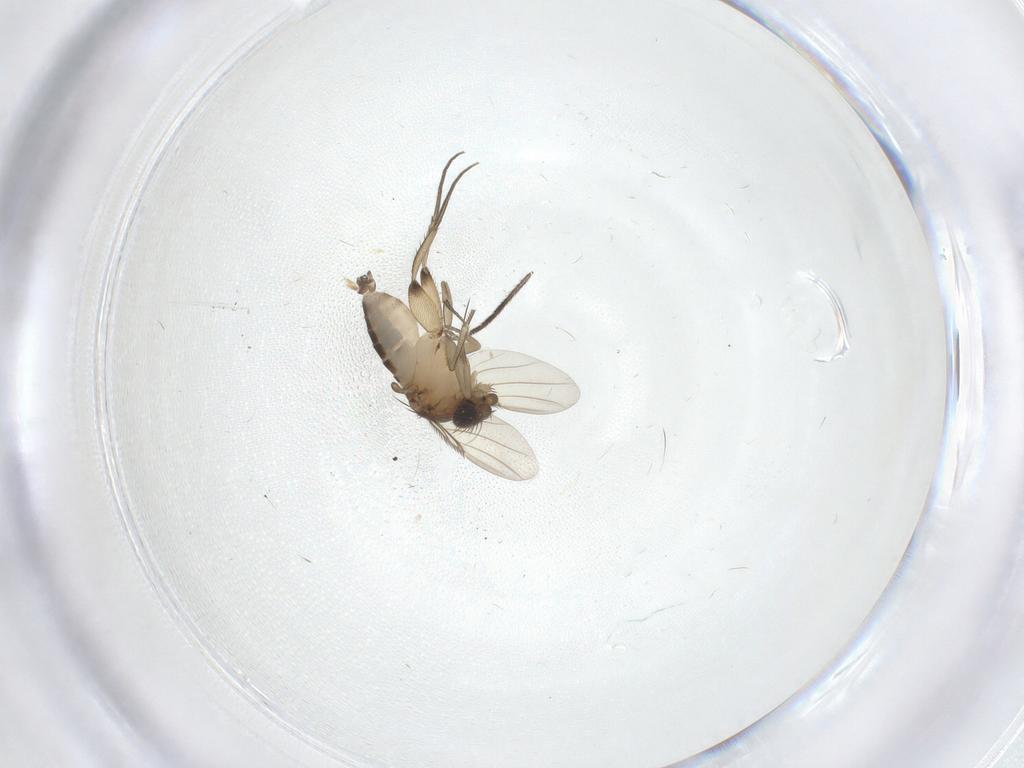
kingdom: Animalia
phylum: Arthropoda
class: Insecta
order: Diptera
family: Phoridae
